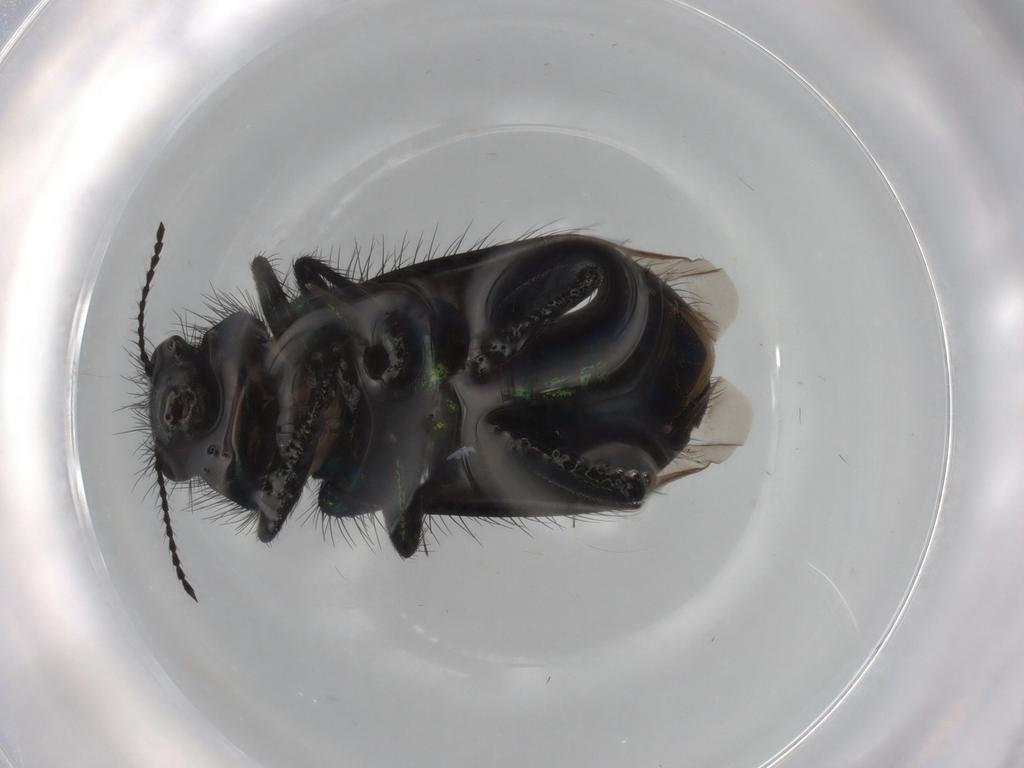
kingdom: Animalia
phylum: Arthropoda
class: Insecta
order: Coleoptera
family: Melyridae
